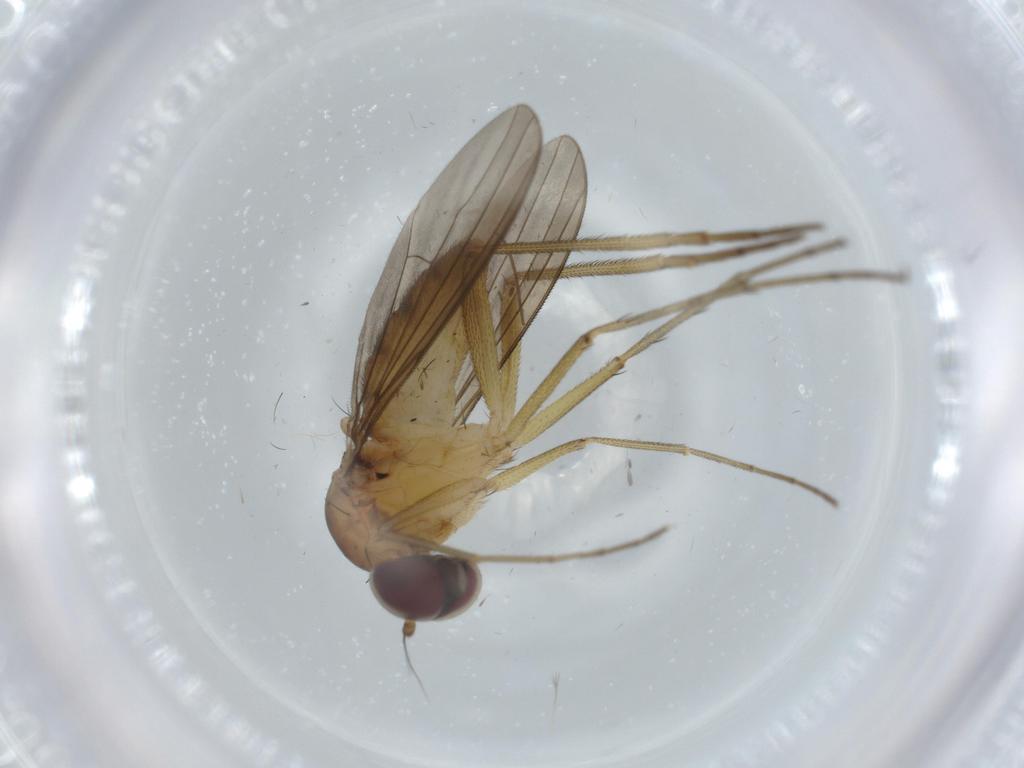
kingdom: Animalia
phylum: Arthropoda
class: Insecta
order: Diptera
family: Dolichopodidae
